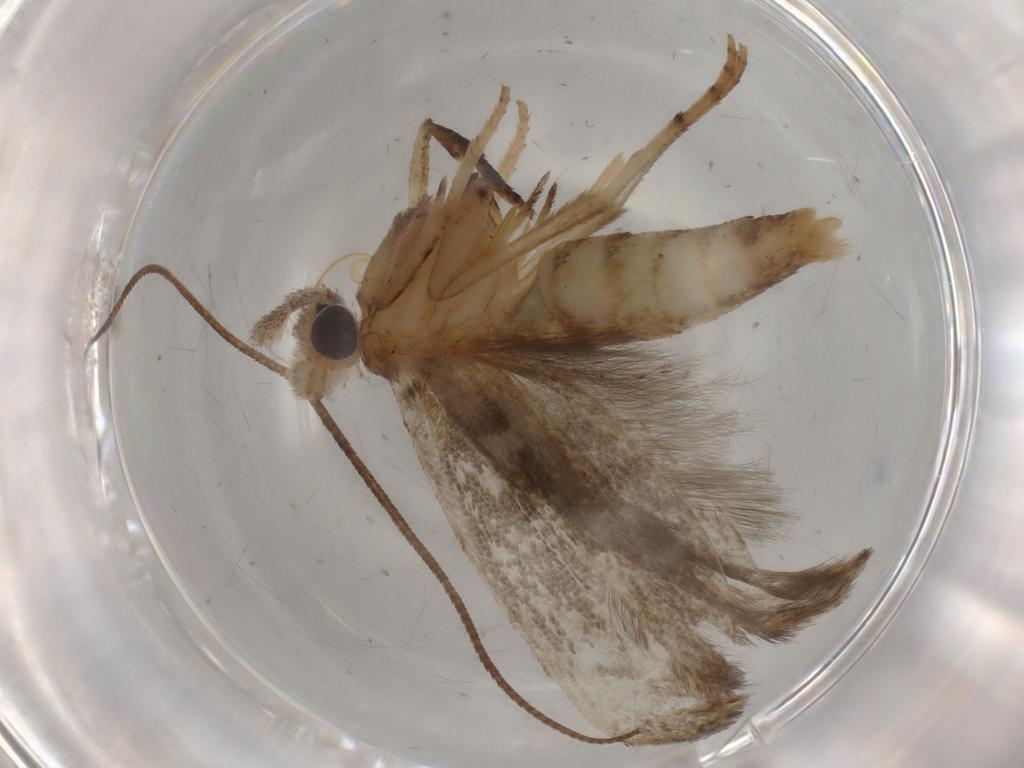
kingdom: Animalia
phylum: Arthropoda
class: Insecta
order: Lepidoptera
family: Yponomeutidae
